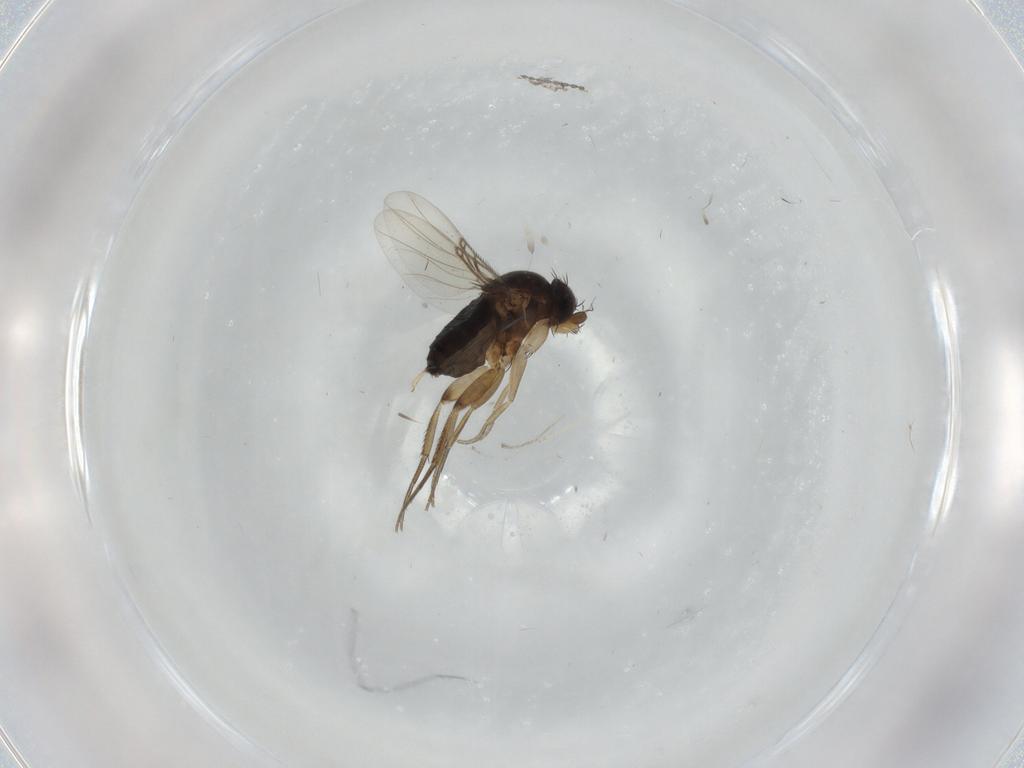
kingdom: Animalia
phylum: Arthropoda
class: Insecta
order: Diptera
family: Phoridae
